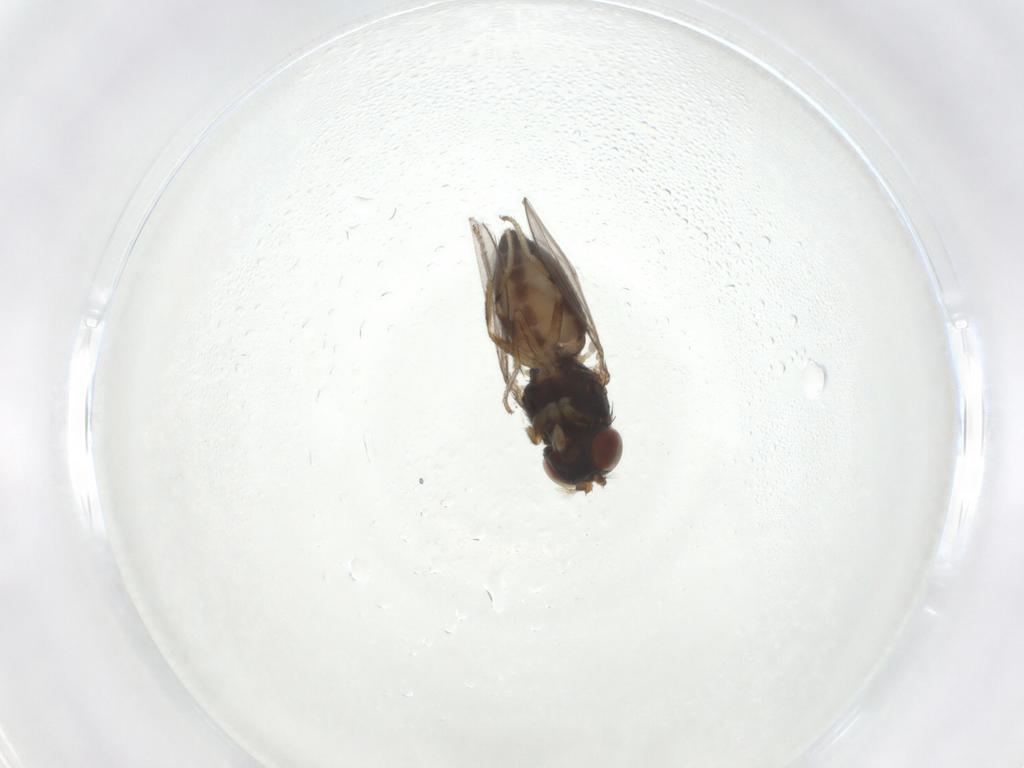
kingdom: Animalia
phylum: Arthropoda
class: Insecta
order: Diptera
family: Ephydridae
